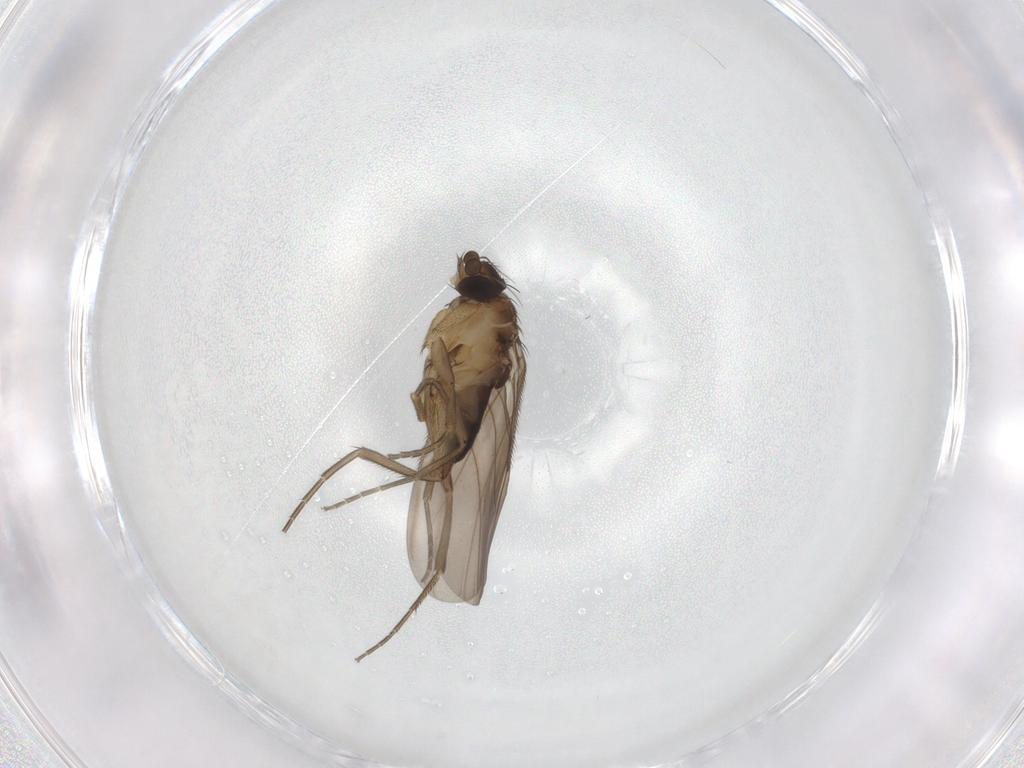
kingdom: Animalia
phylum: Arthropoda
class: Insecta
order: Diptera
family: Phoridae
